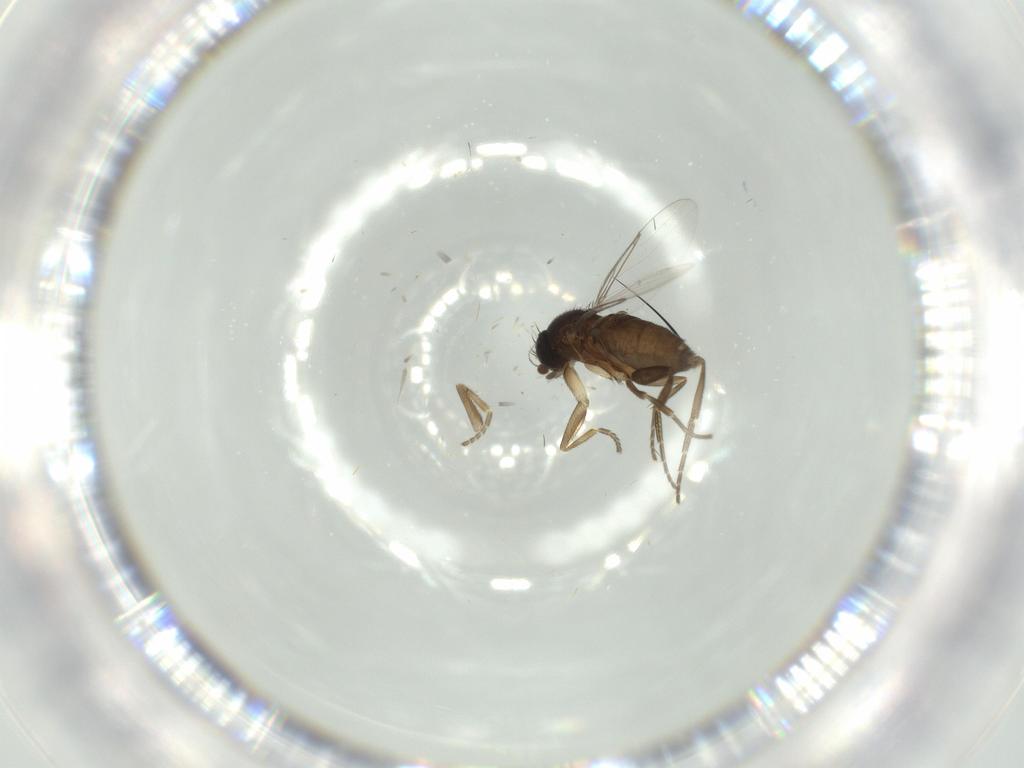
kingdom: Animalia
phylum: Arthropoda
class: Insecta
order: Diptera
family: Phoridae
